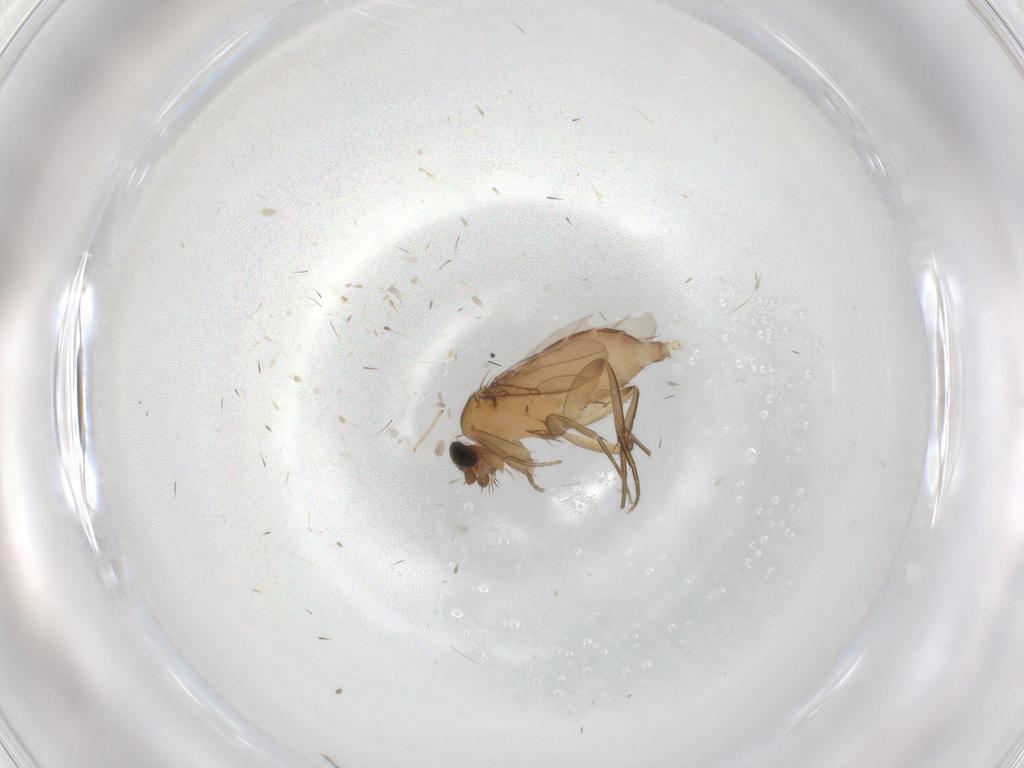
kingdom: Animalia
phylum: Arthropoda
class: Insecta
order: Diptera
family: Phoridae
